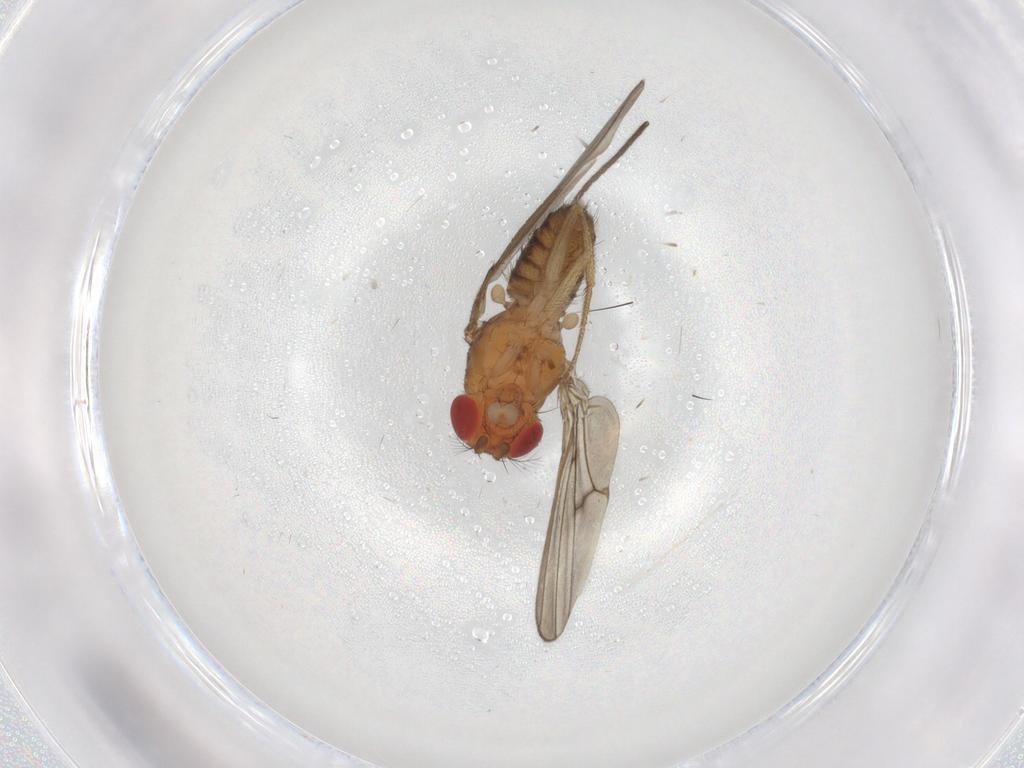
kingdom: Animalia
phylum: Arthropoda
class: Insecta
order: Diptera
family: Drosophilidae
